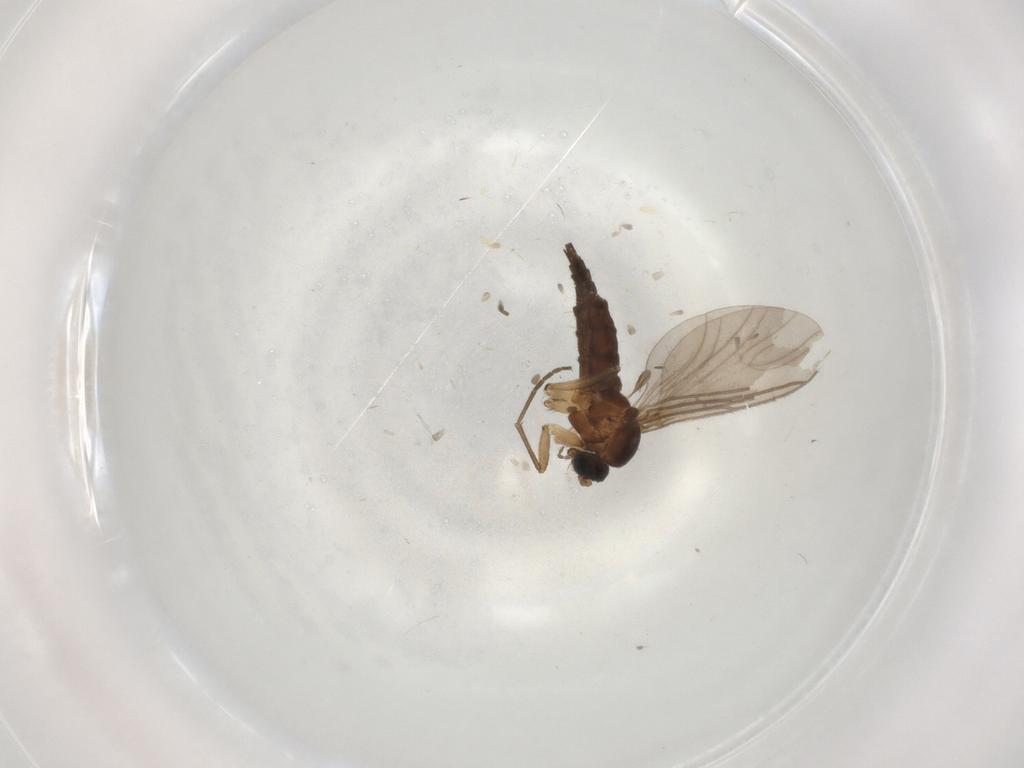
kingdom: Animalia
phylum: Arthropoda
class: Insecta
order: Diptera
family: Sciaridae
